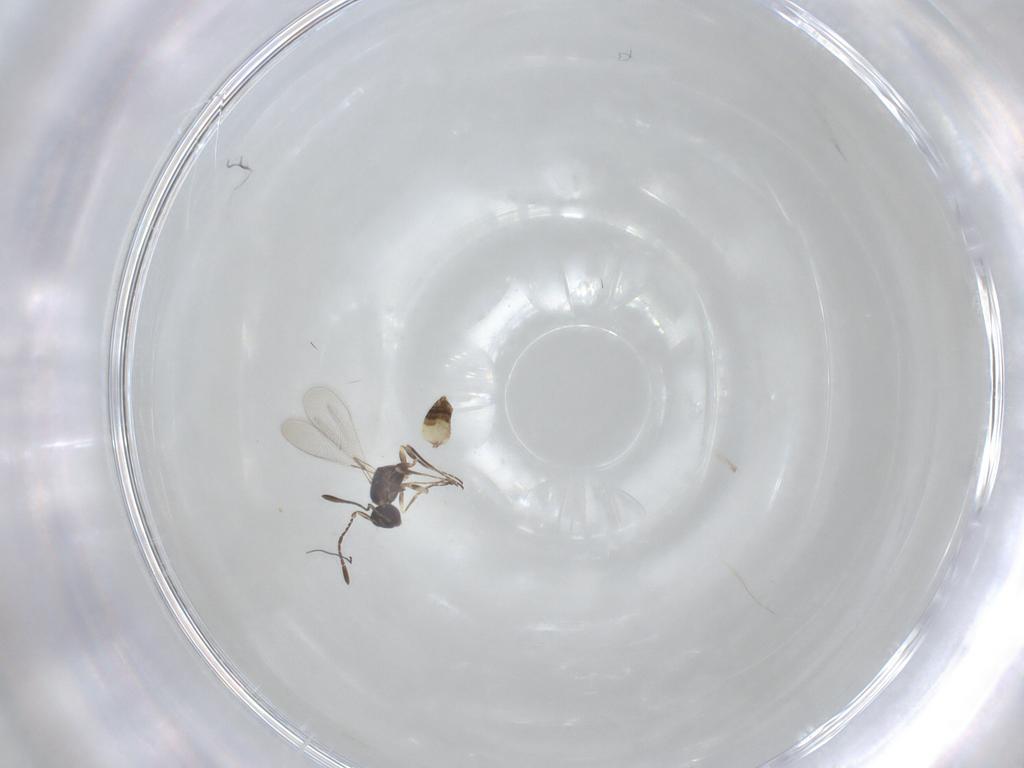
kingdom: Animalia
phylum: Arthropoda
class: Insecta
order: Hymenoptera
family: Mymaridae
